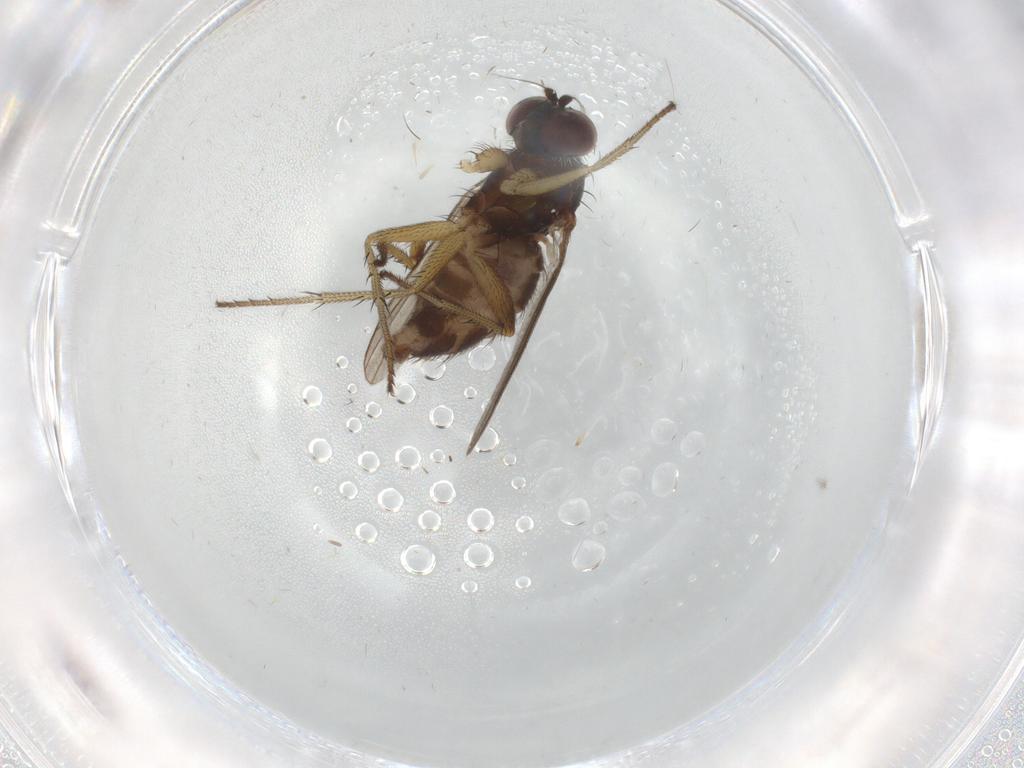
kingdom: Animalia
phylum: Arthropoda
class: Insecta
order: Diptera
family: Dolichopodidae
